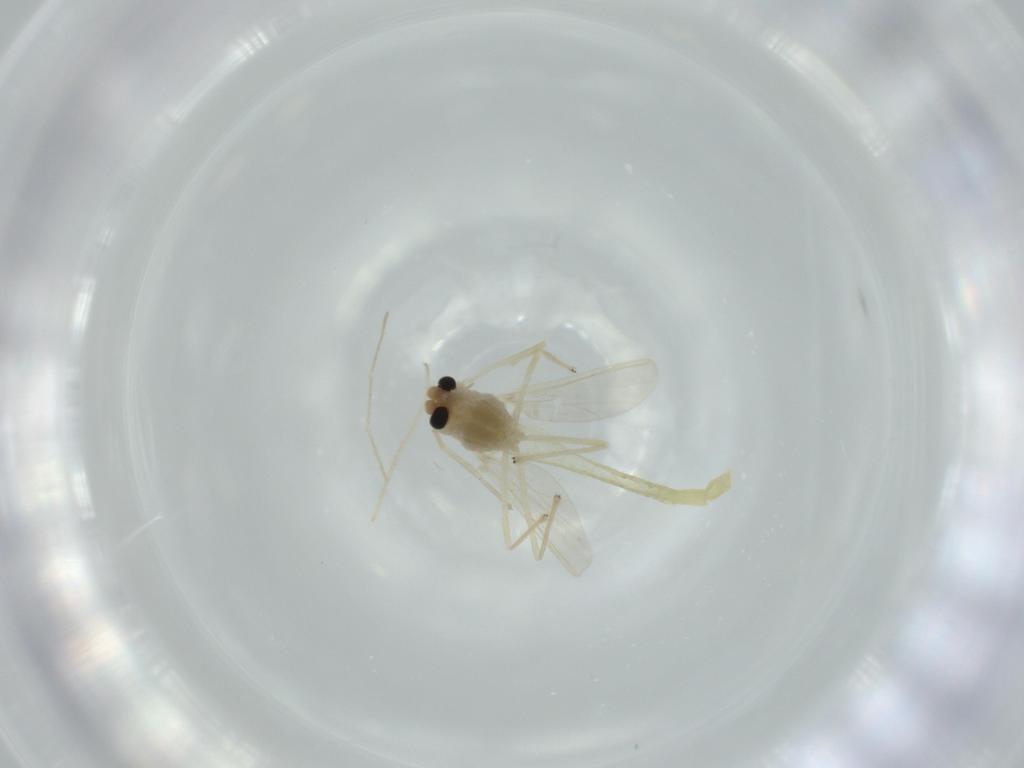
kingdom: Animalia
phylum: Arthropoda
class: Insecta
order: Diptera
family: Chironomidae
